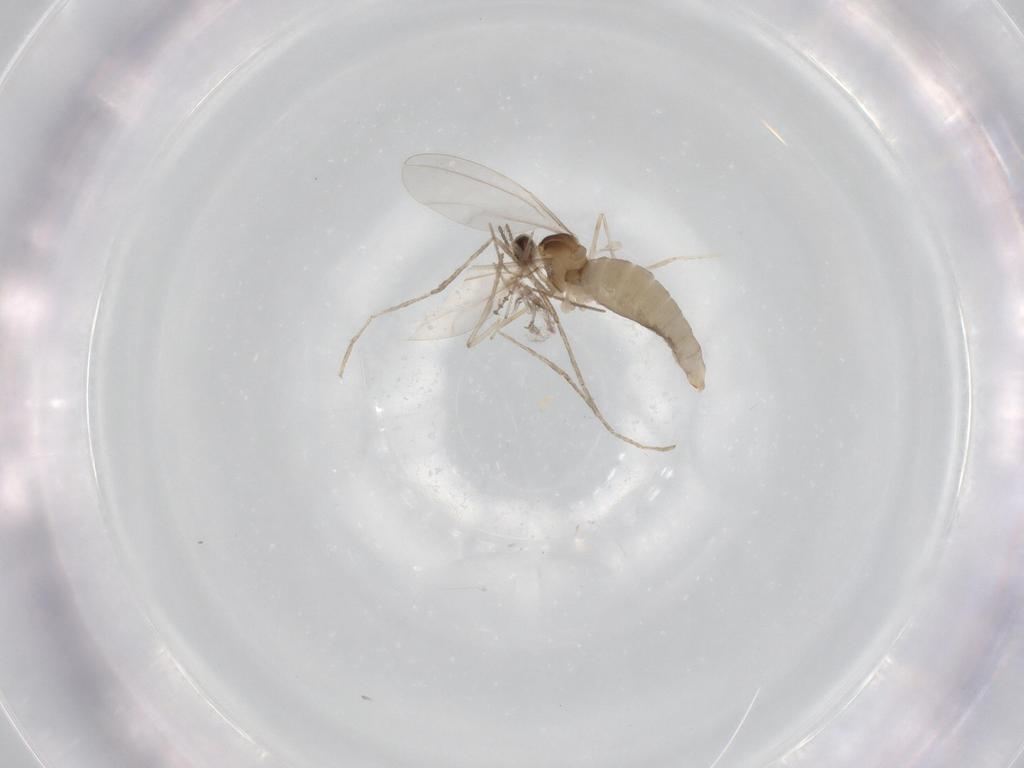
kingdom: Animalia
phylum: Arthropoda
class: Insecta
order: Diptera
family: Cecidomyiidae
